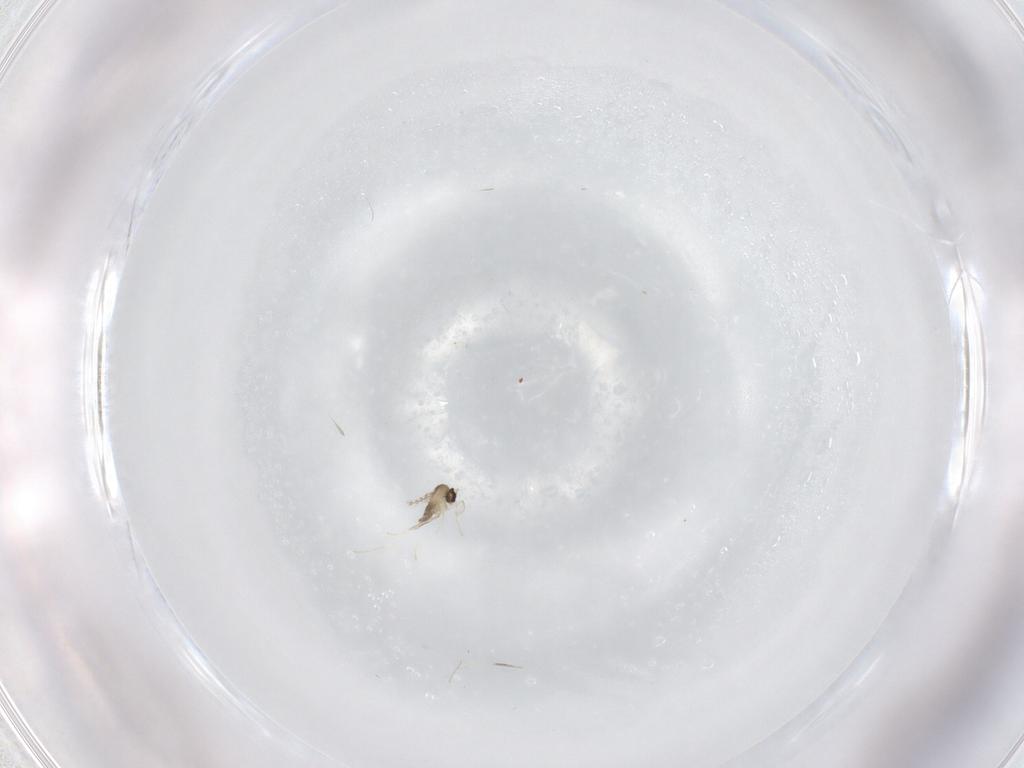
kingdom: Animalia
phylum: Arthropoda
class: Insecta
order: Diptera
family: Cecidomyiidae
